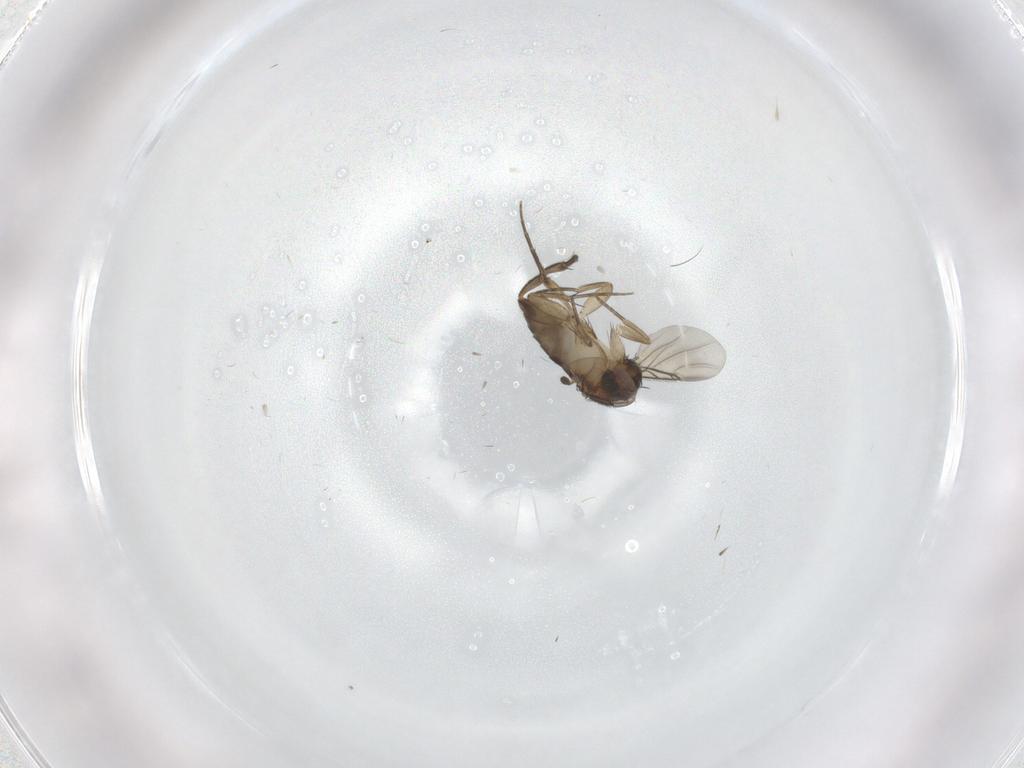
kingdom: Animalia
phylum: Arthropoda
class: Insecta
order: Diptera
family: Phoridae
